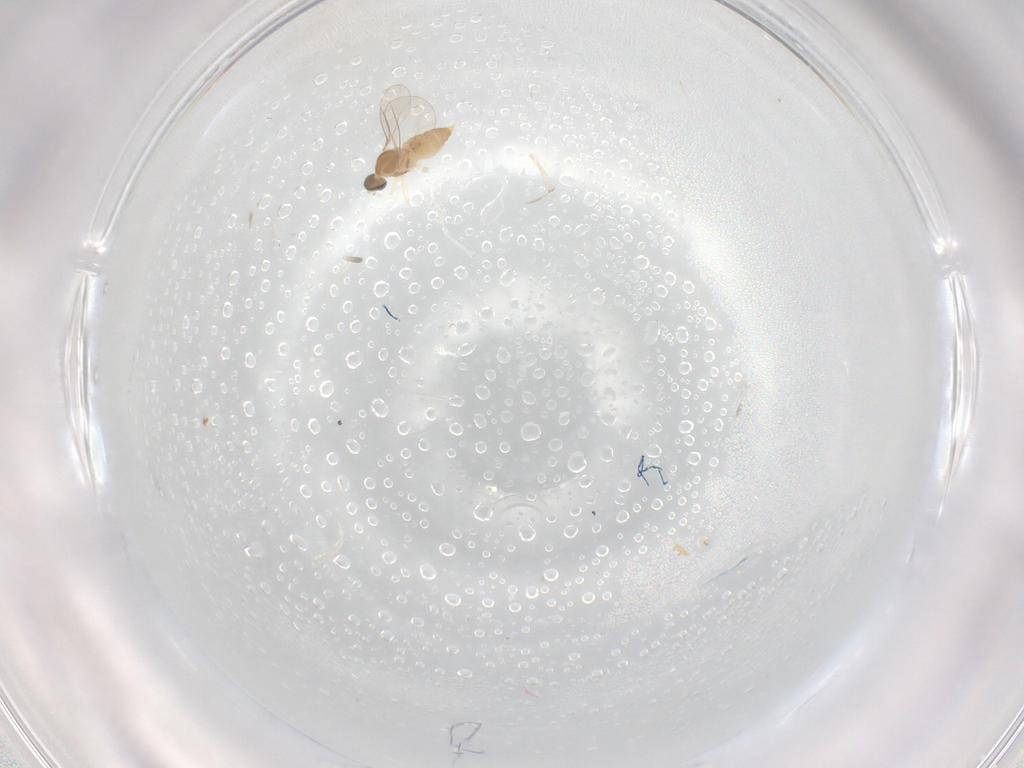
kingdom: Animalia
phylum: Arthropoda
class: Insecta
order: Diptera
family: Cecidomyiidae
